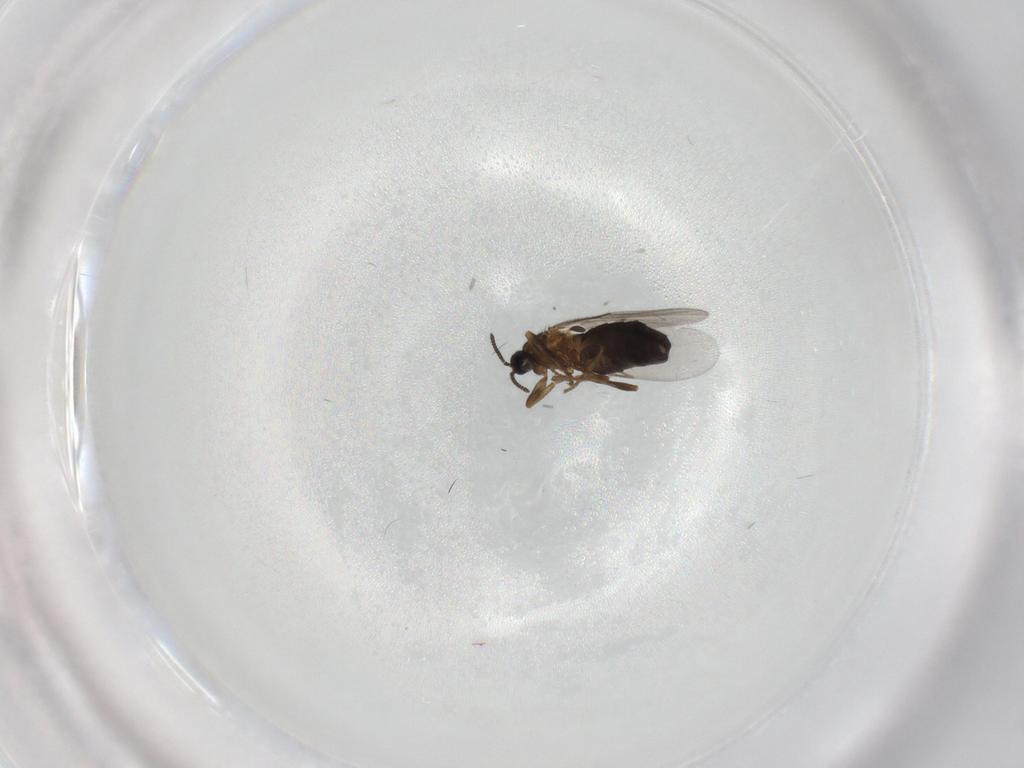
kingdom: Animalia
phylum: Arthropoda
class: Insecta
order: Diptera
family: Scatopsidae
